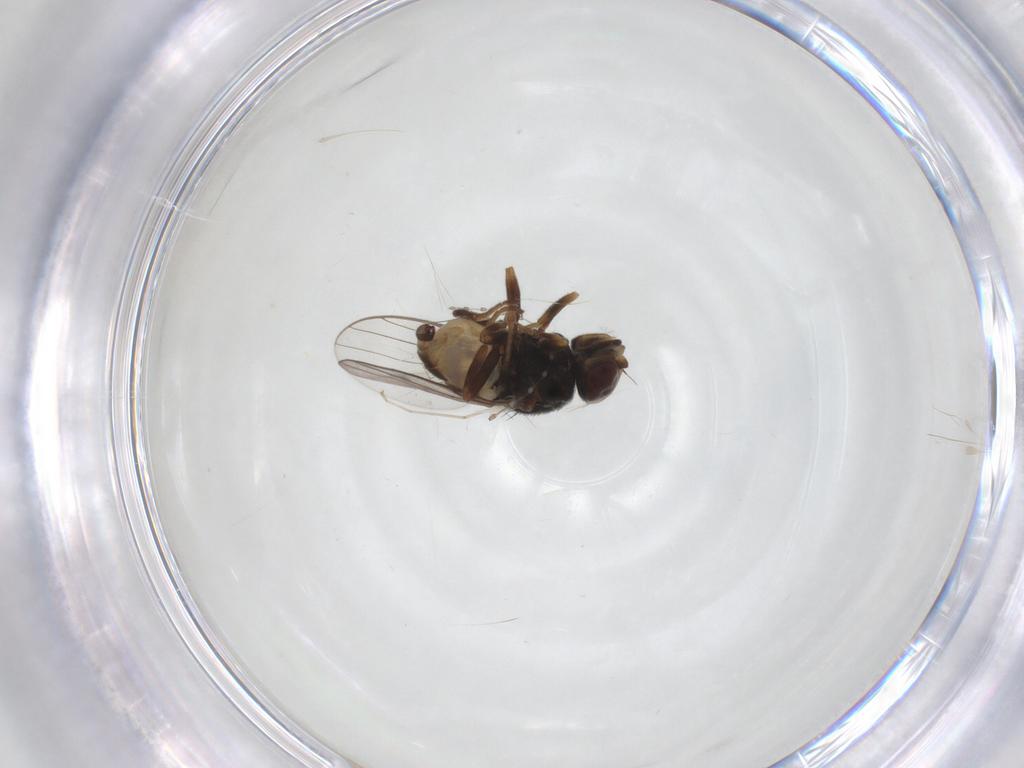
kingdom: Animalia
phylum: Arthropoda
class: Insecta
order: Diptera
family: Chloropidae
